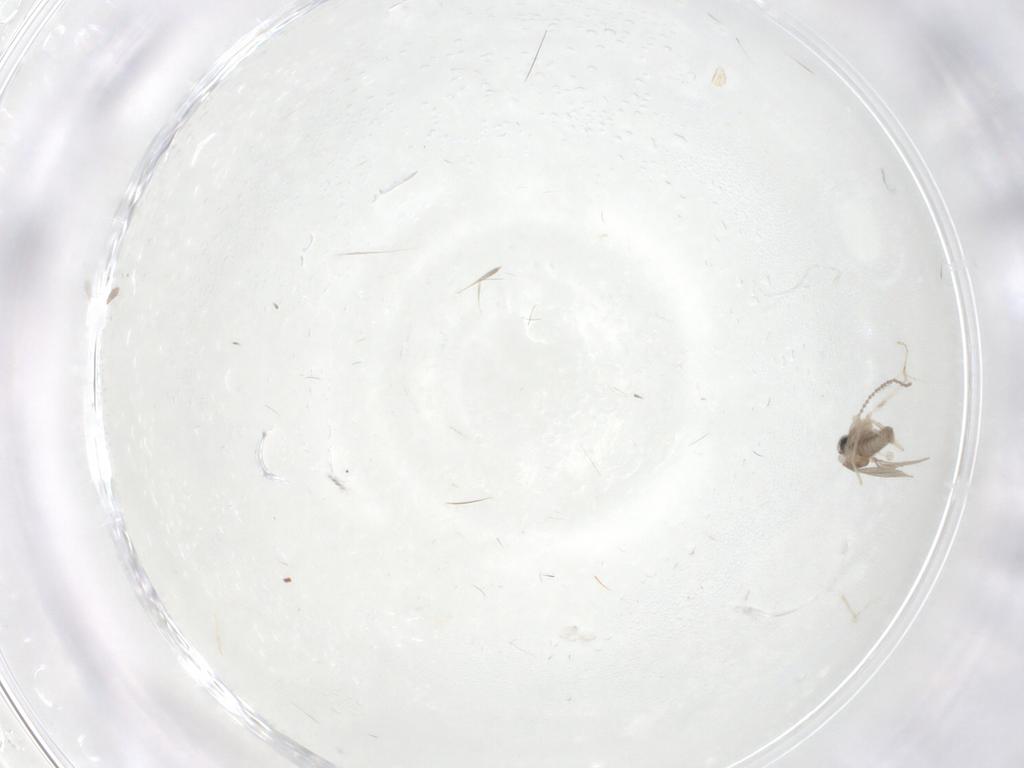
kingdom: Animalia
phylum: Arthropoda
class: Insecta
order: Diptera
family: Cecidomyiidae
